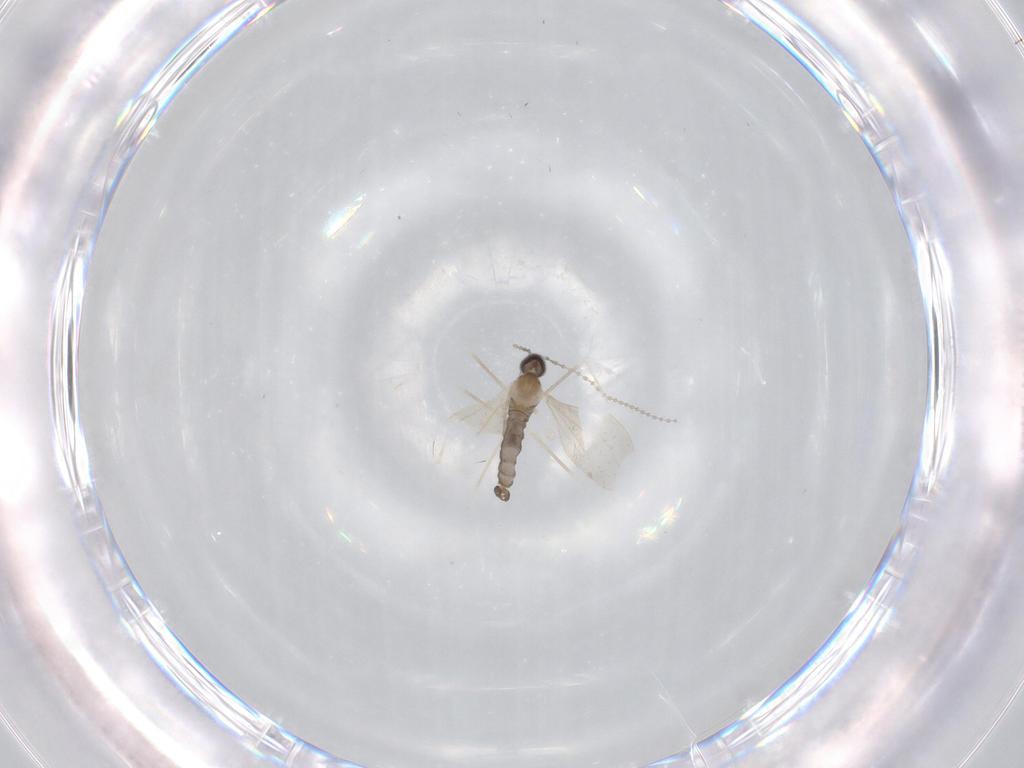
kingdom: Animalia
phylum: Arthropoda
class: Insecta
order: Diptera
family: Cecidomyiidae
